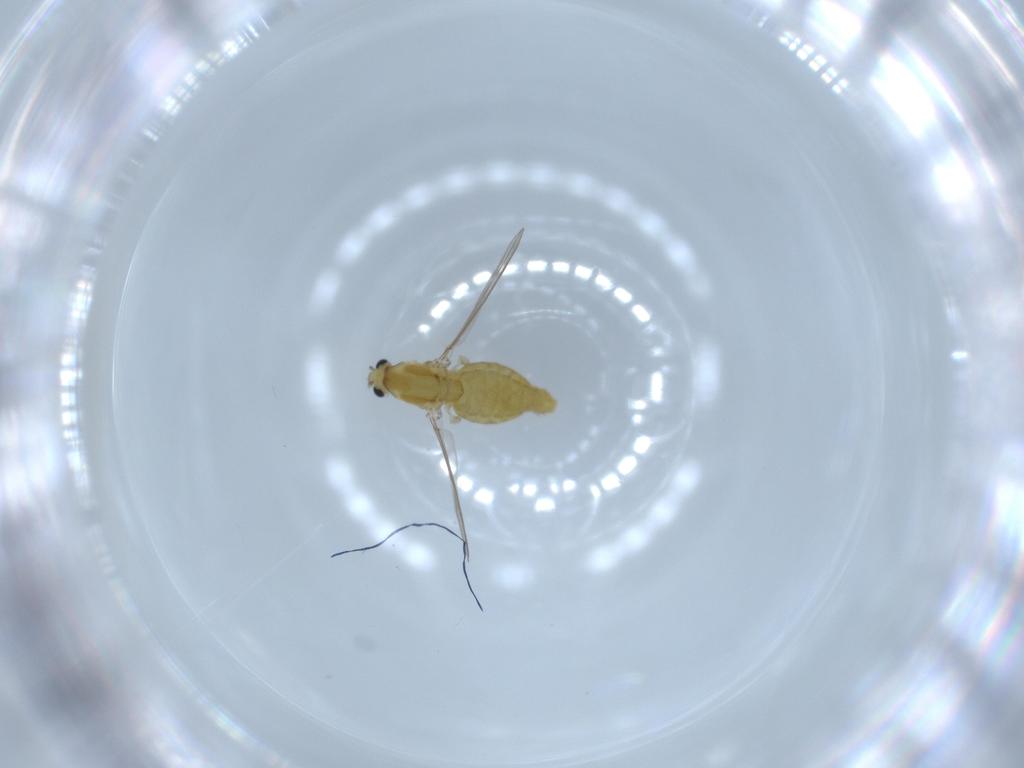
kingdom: Animalia
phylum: Arthropoda
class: Insecta
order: Diptera
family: Chironomidae
